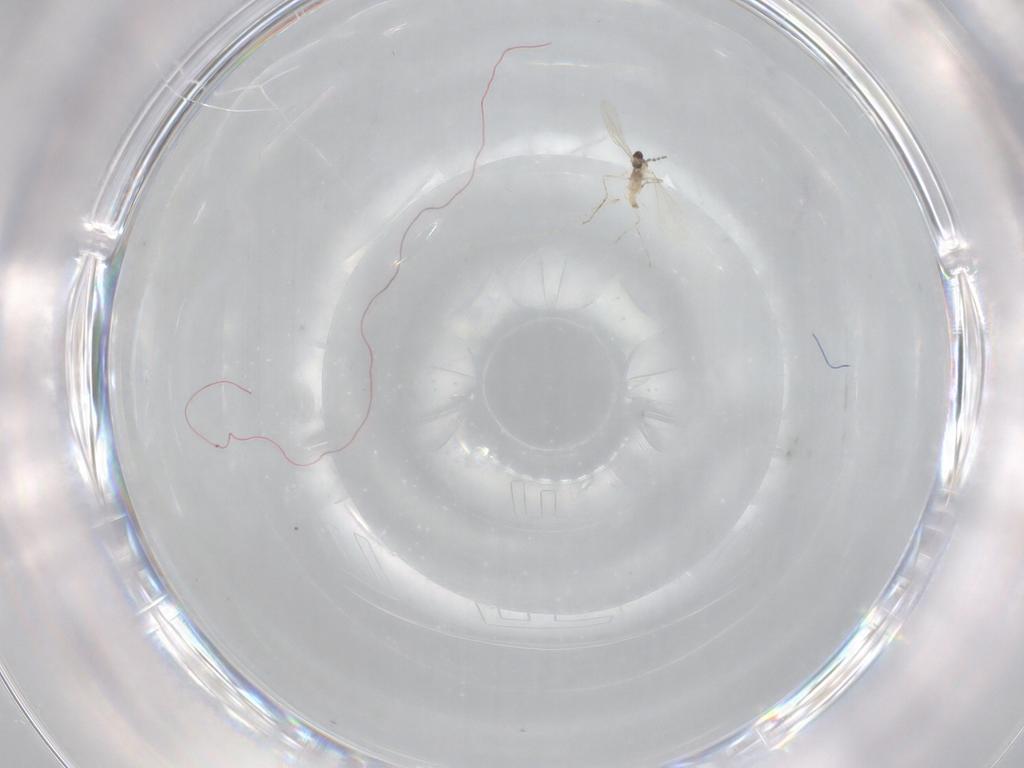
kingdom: Animalia
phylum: Arthropoda
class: Insecta
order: Diptera
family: Cecidomyiidae
